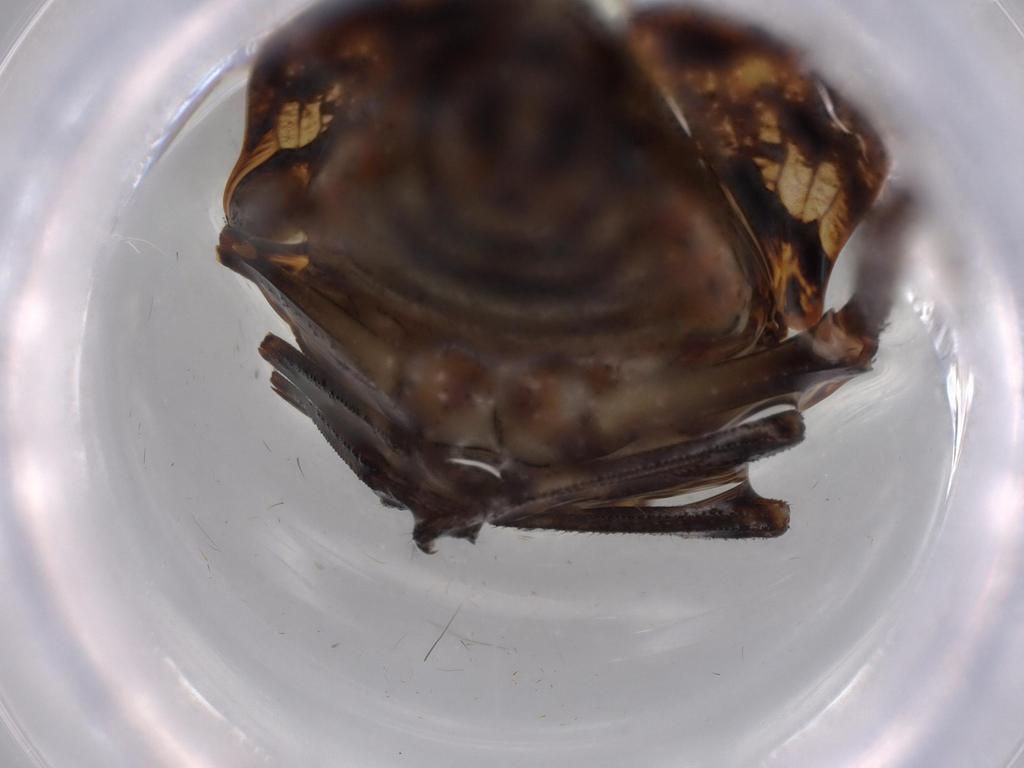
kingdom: Animalia
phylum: Arthropoda
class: Insecta
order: Hemiptera
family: Issidae
